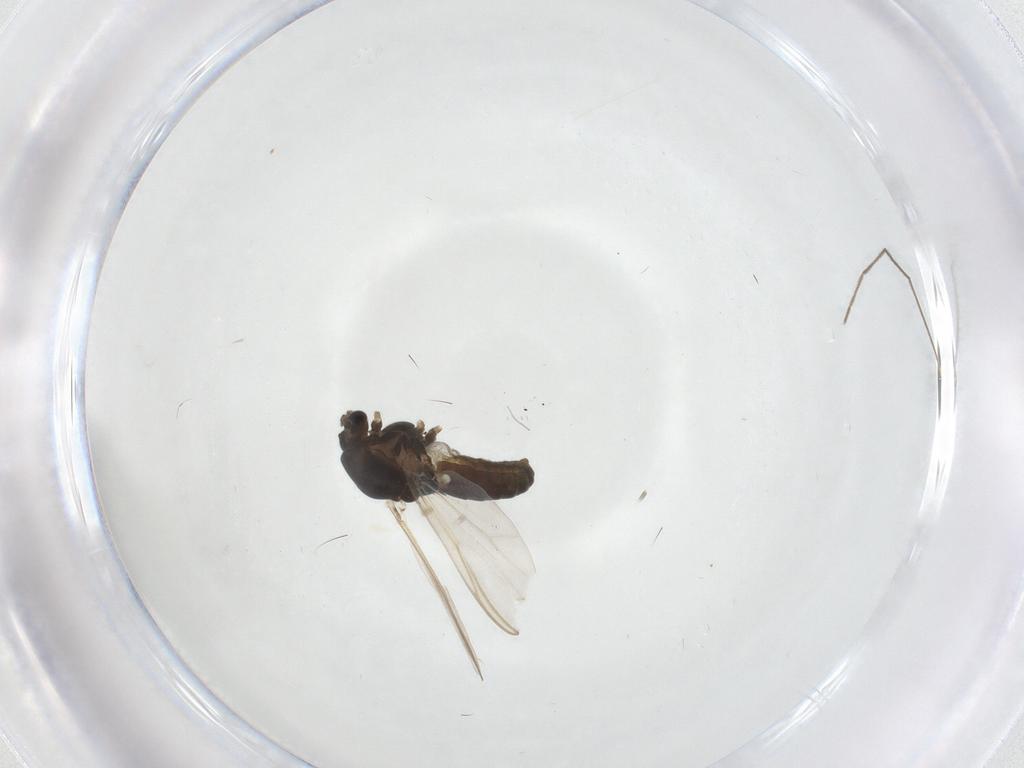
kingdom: Animalia
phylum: Arthropoda
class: Insecta
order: Diptera
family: Chironomidae
